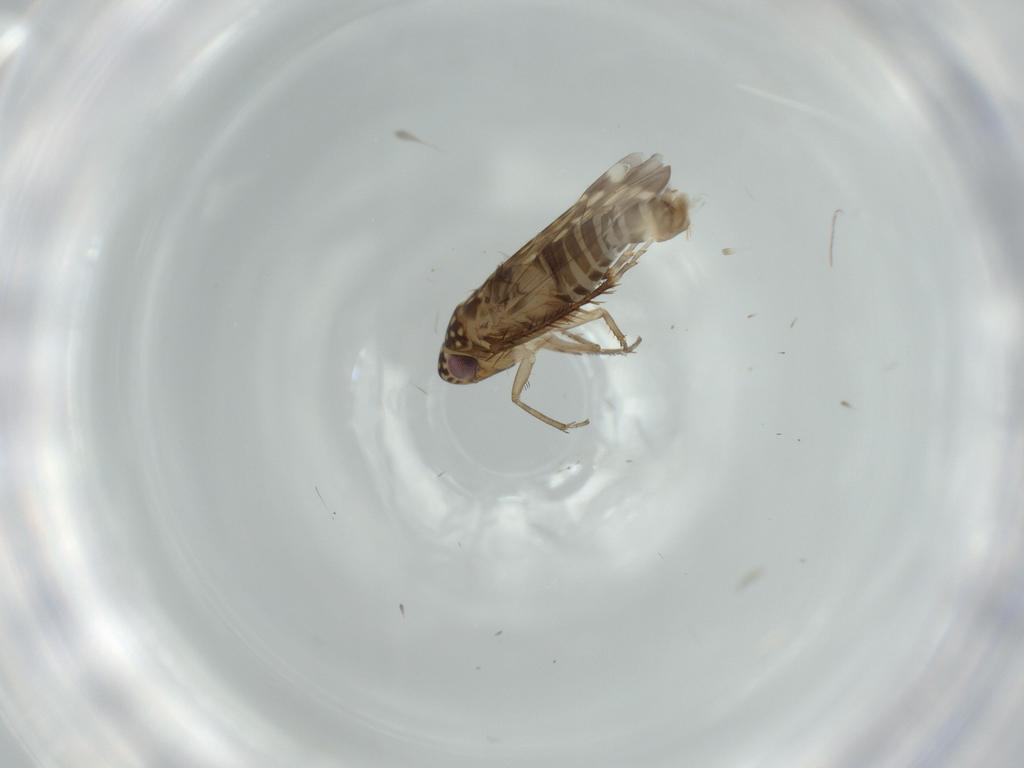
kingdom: Animalia
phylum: Arthropoda
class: Insecta
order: Hemiptera
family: Cicadellidae
